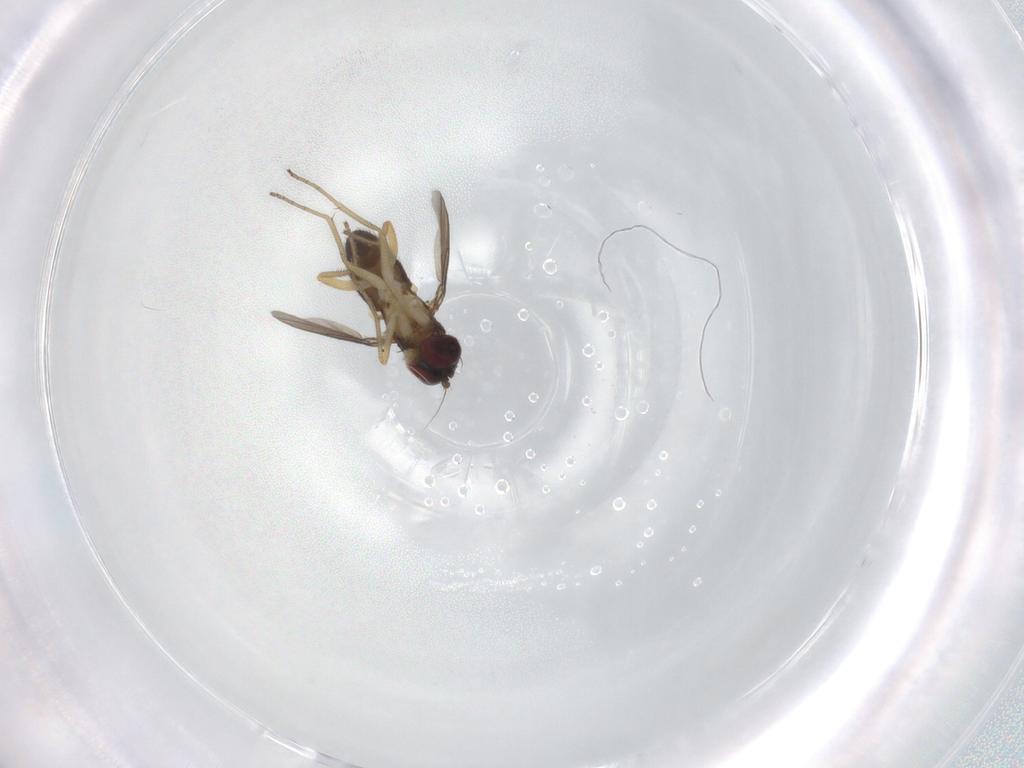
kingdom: Animalia
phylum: Arthropoda
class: Insecta
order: Diptera
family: Dolichopodidae
